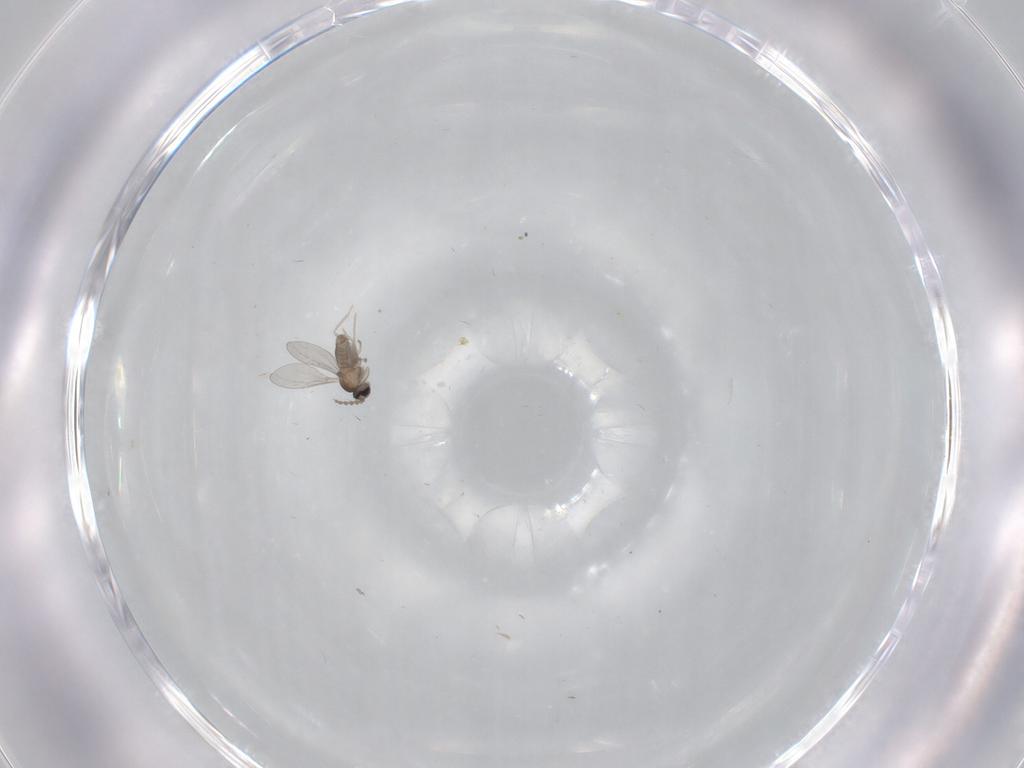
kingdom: Animalia
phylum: Arthropoda
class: Insecta
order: Diptera
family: Cecidomyiidae
